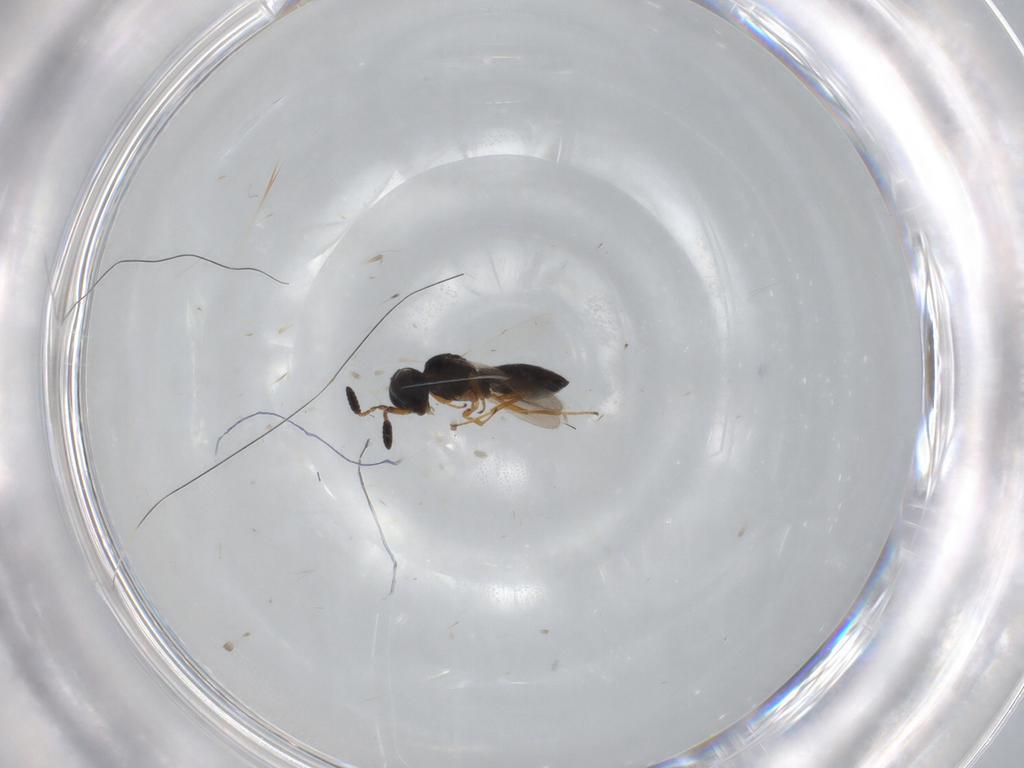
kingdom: Animalia
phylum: Arthropoda
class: Insecta
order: Hymenoptera
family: Scelionidae
